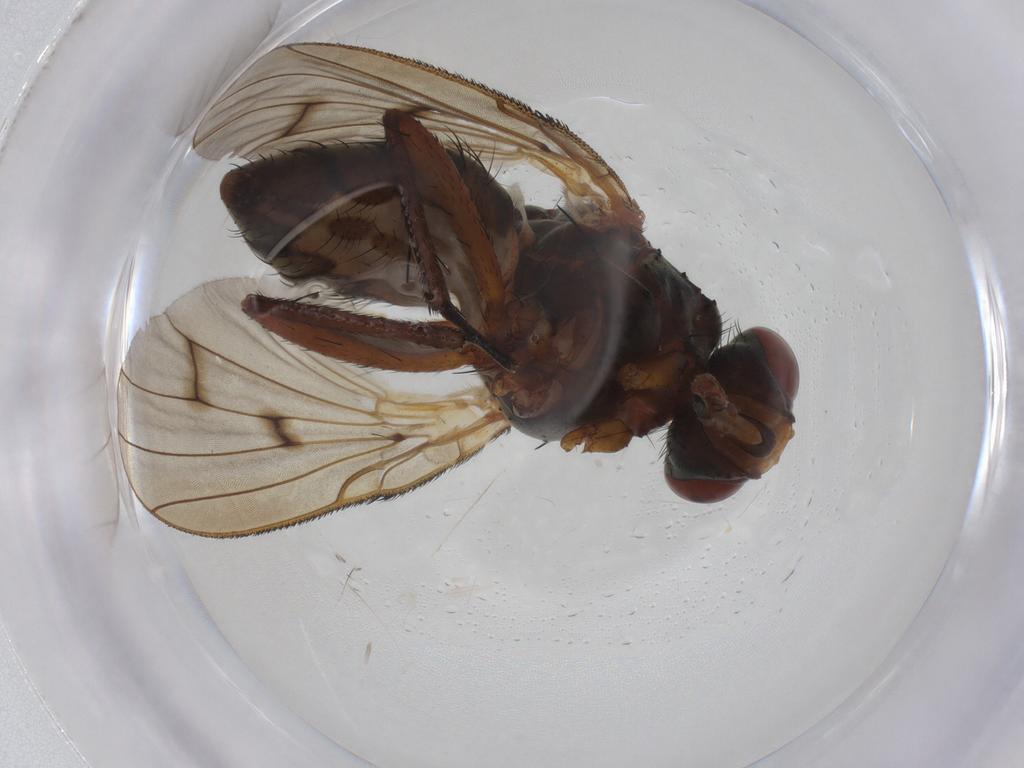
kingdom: Animalia
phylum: Arthropoda
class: Insecta
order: Diptera
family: Anthomyiidae
